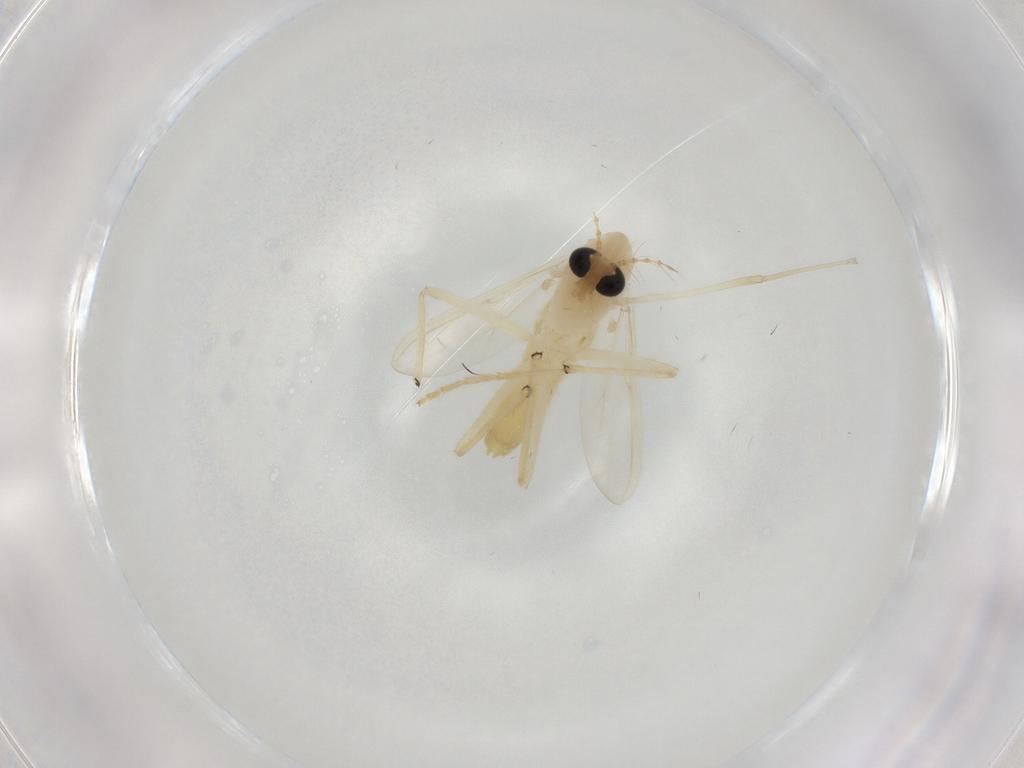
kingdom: Animalia
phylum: Arthropoda
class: Insecta
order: Diptera
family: Chironomidae
